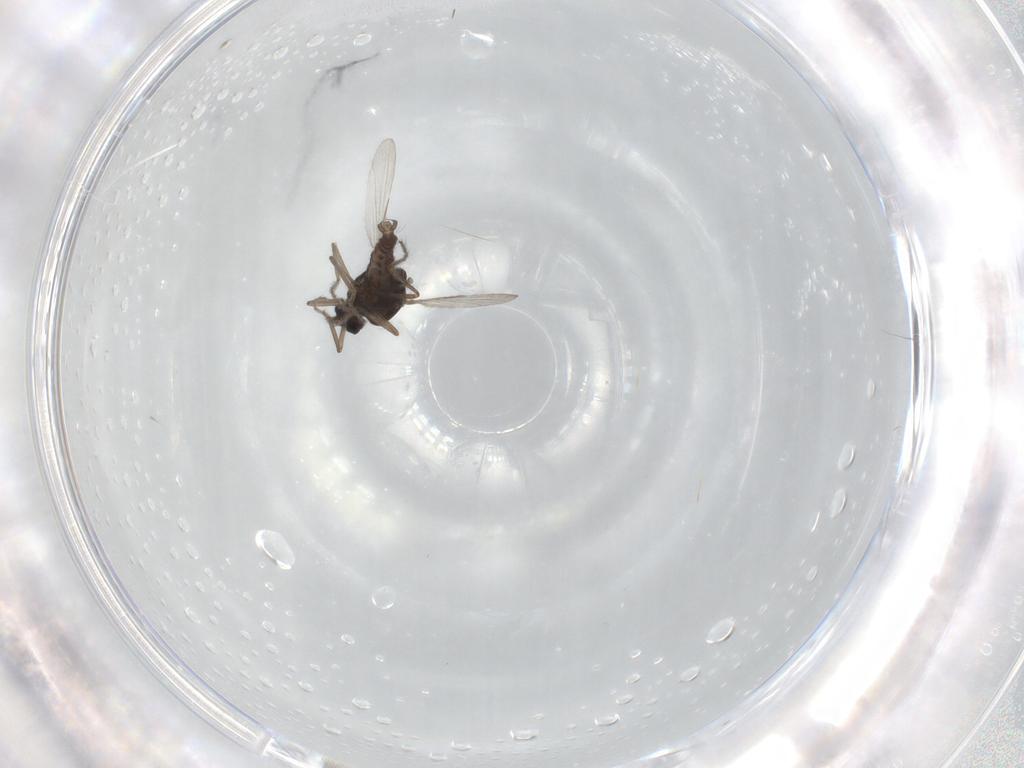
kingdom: Animalia
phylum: Arthropoda
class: Insecta
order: Diptera
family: Ceratopogonidae
